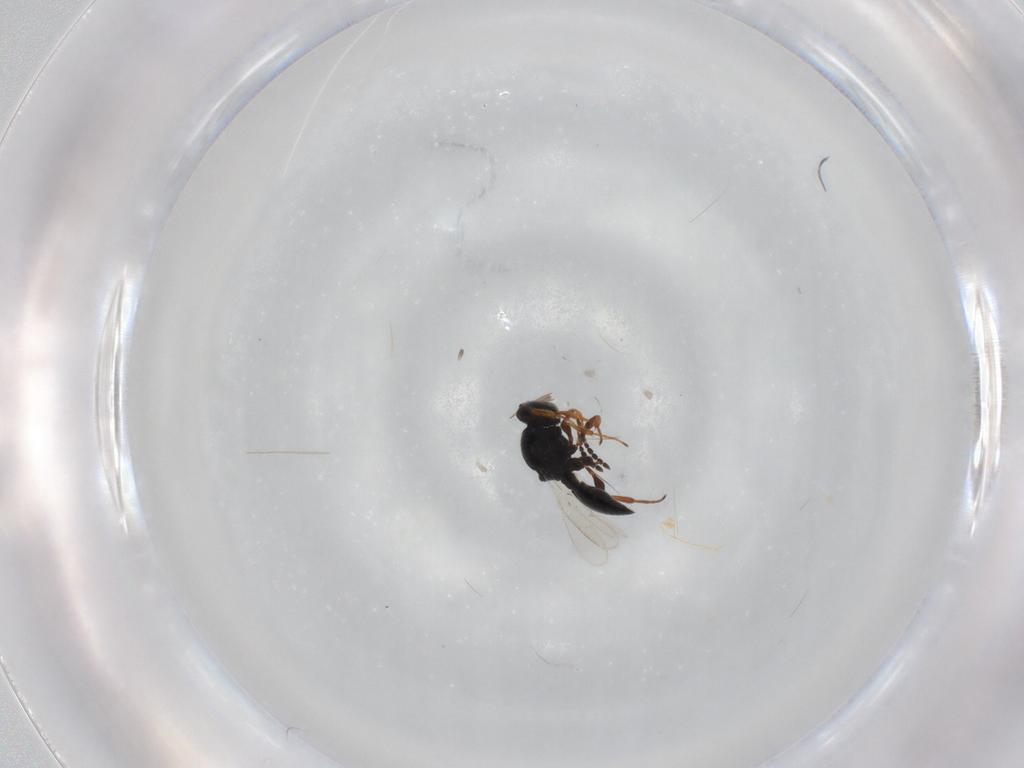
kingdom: Animalia
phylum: Arthropoda
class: Insecta
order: Hymenoptera
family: Platygastridae
